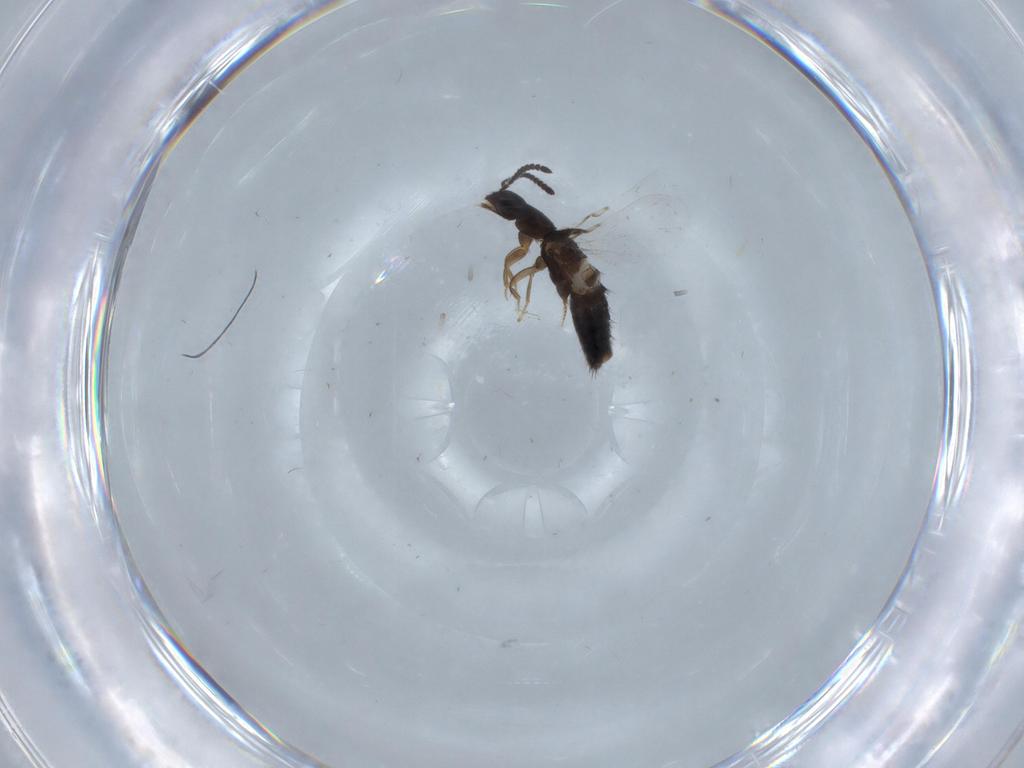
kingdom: Animalia
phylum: Arthropoda
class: Insecta
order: Coleoptera
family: Staphylinidae
